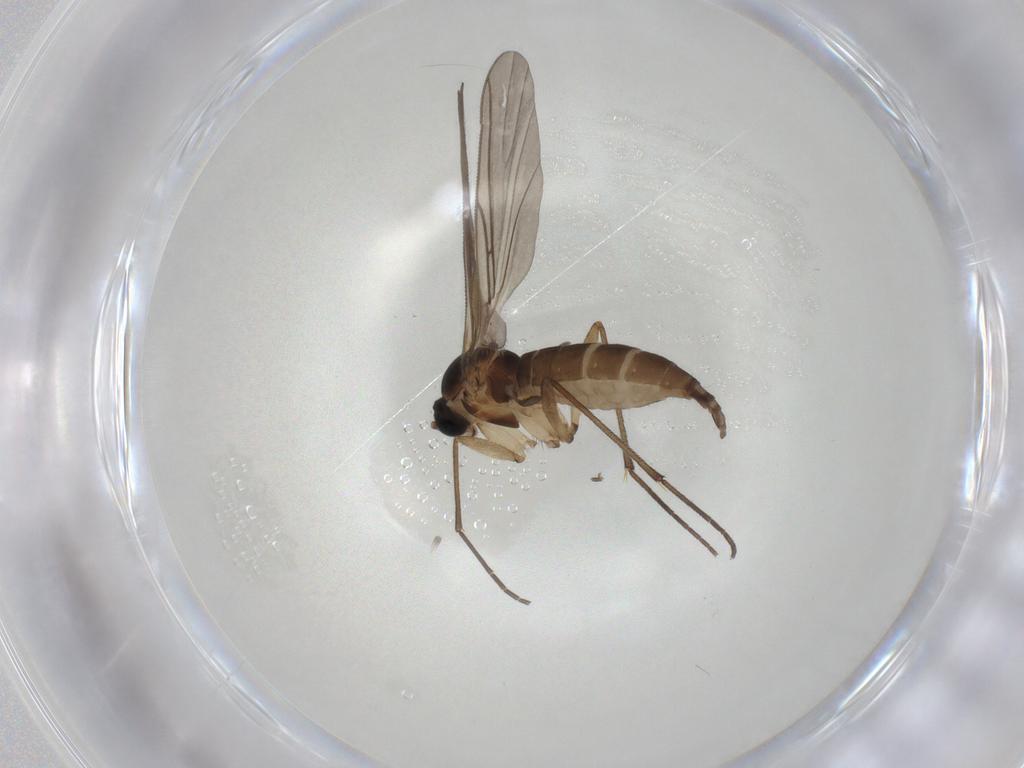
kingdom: Animalia
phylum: Arthropoda
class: Insecta
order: Diptera
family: Sciaridae
